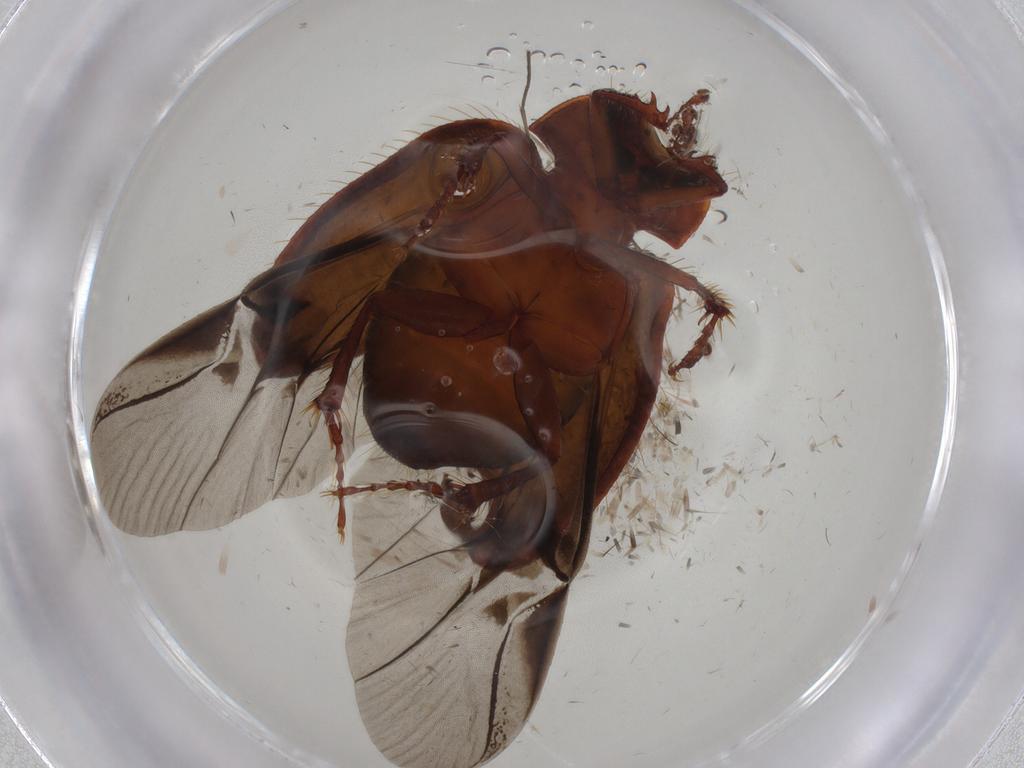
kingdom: Animalia
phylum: Arthropoda
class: Insecta
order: Coleoptera
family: Hybosoridae
